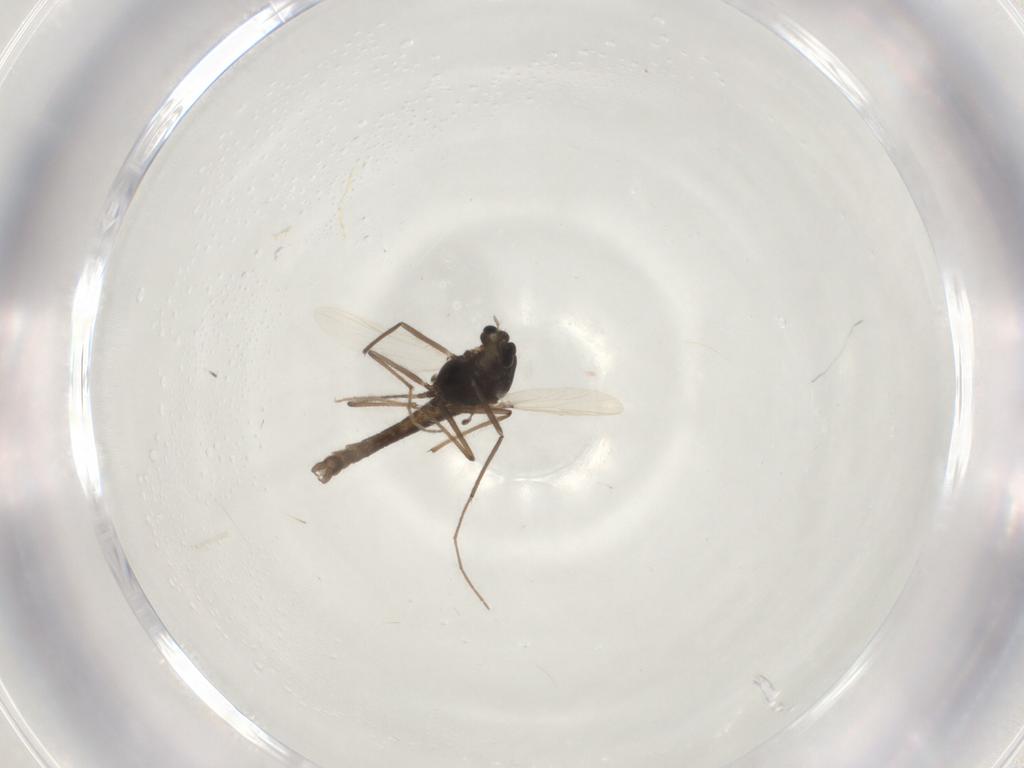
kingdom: Animalia
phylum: Arthropoda
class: Insecta
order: Diptera
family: Chironomidae
